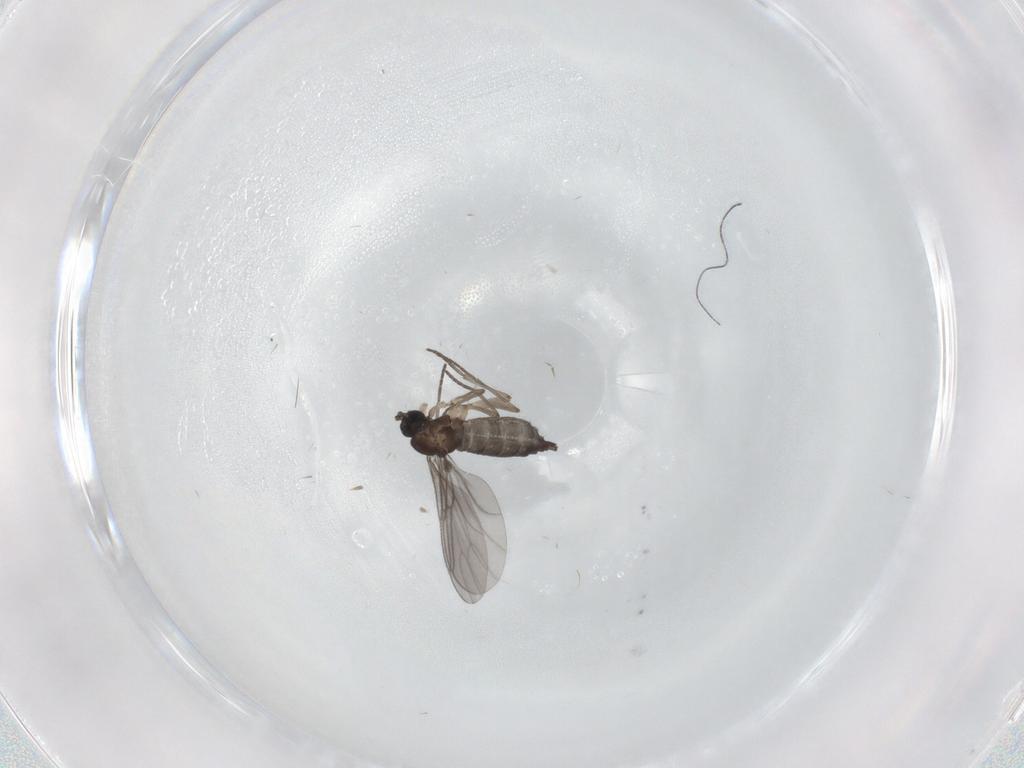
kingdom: Animalia
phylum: Arthropoda
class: Insecta
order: Diptera
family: Sciaridae
